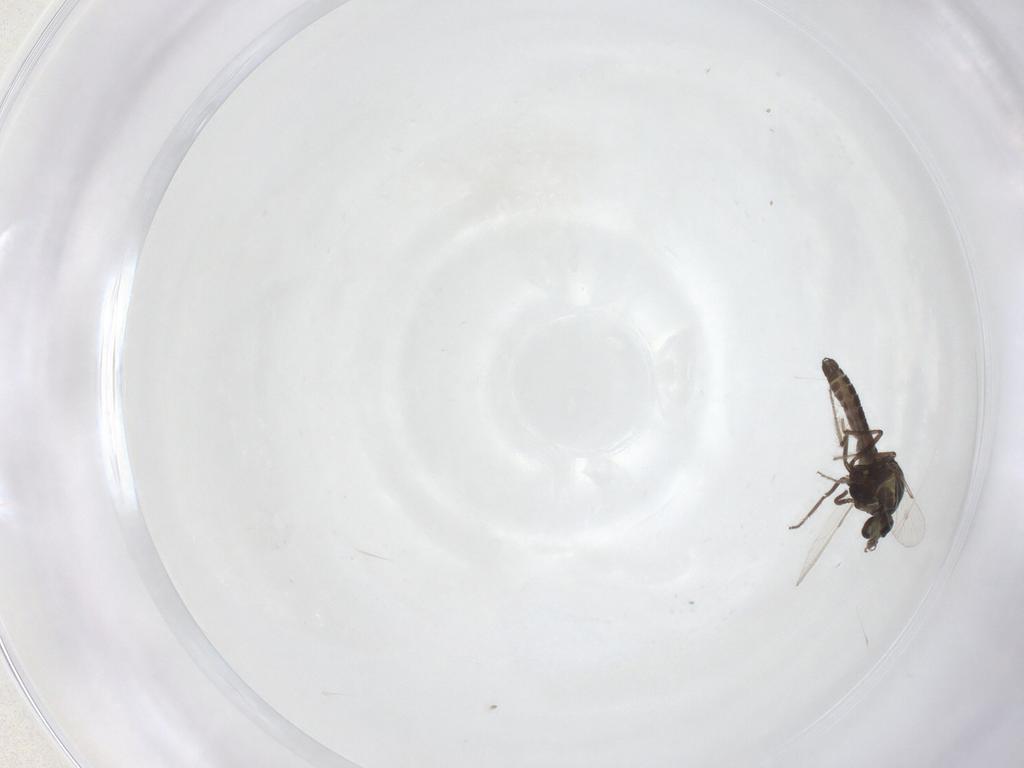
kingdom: Animalia
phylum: Arthropoda
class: Insecta
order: Diptera
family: Ceratopogonidae
